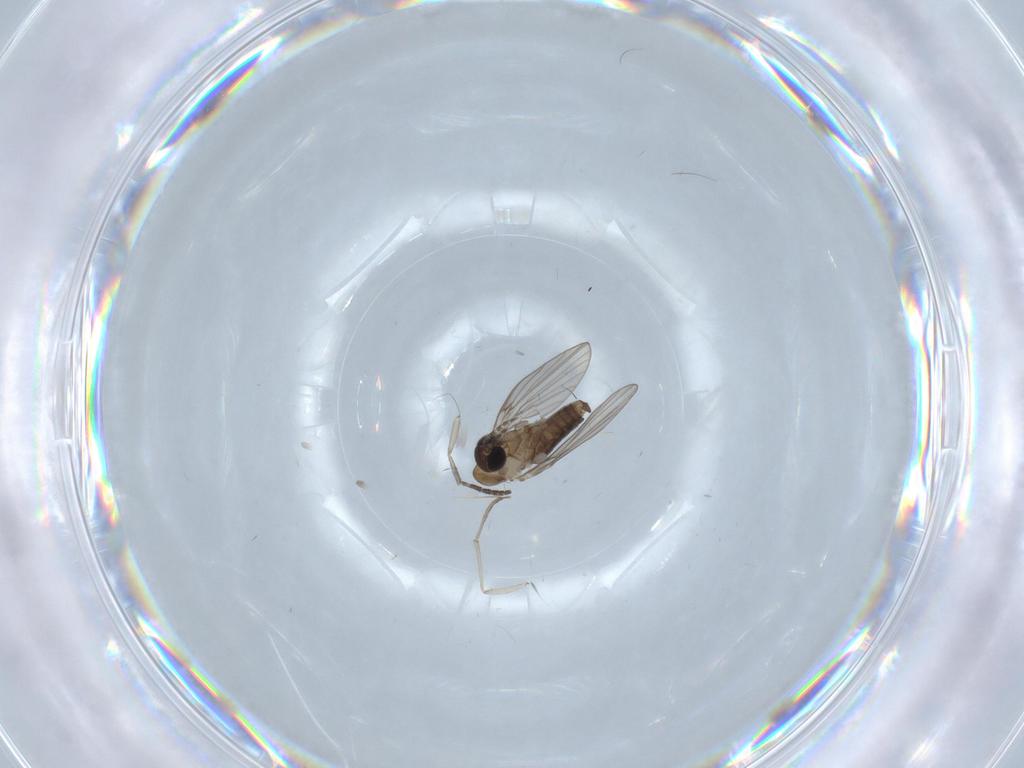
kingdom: Animalia
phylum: Arthropoda
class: Insecta
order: Diptera
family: Psychodidae
